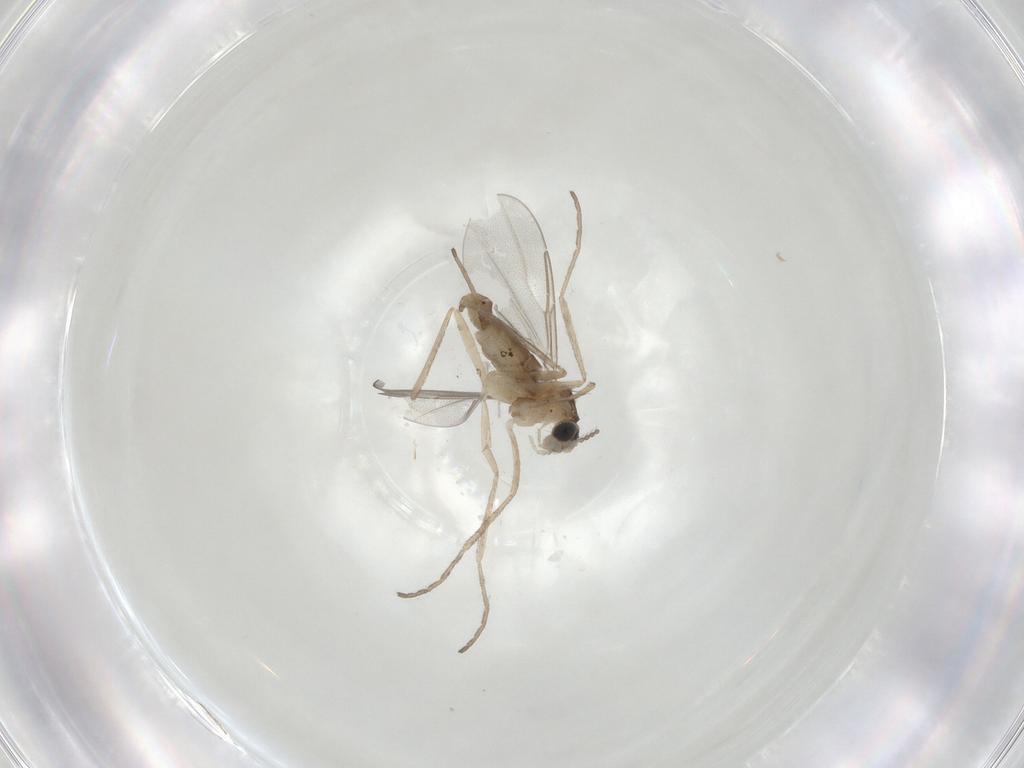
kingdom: Animalia
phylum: Arthropoda
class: Insecta
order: Diptera
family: Cecidomyiidae
